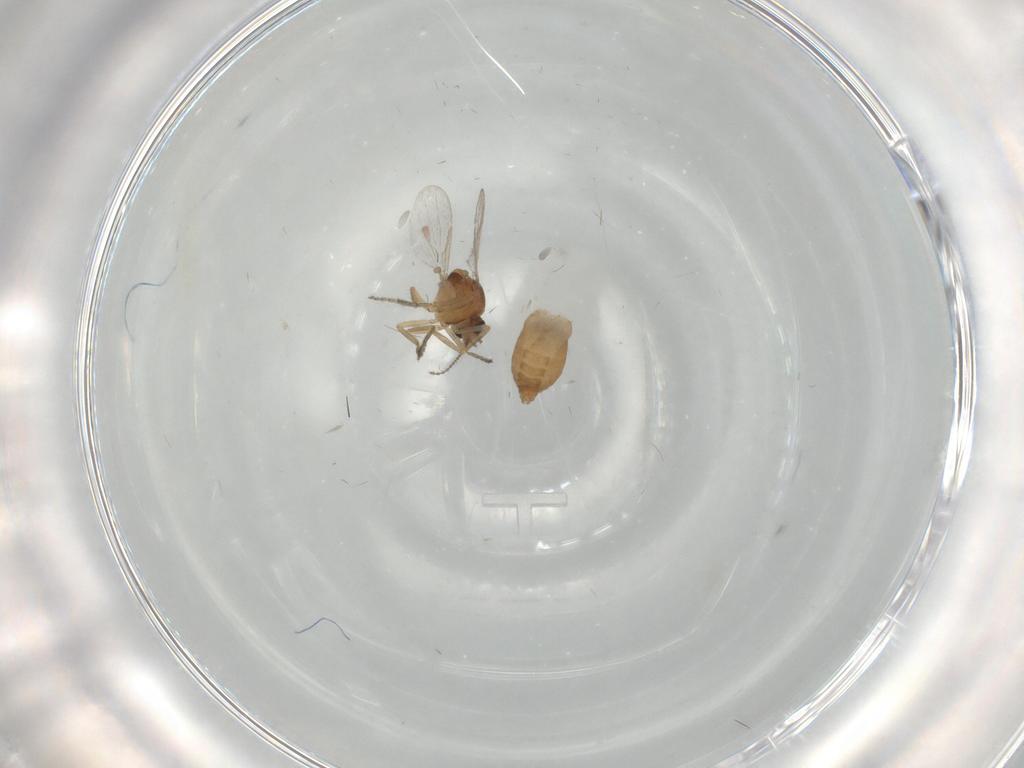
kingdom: Animalia
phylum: Arthropoda
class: Insecta
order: Diptera
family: Ceratopogonidae
